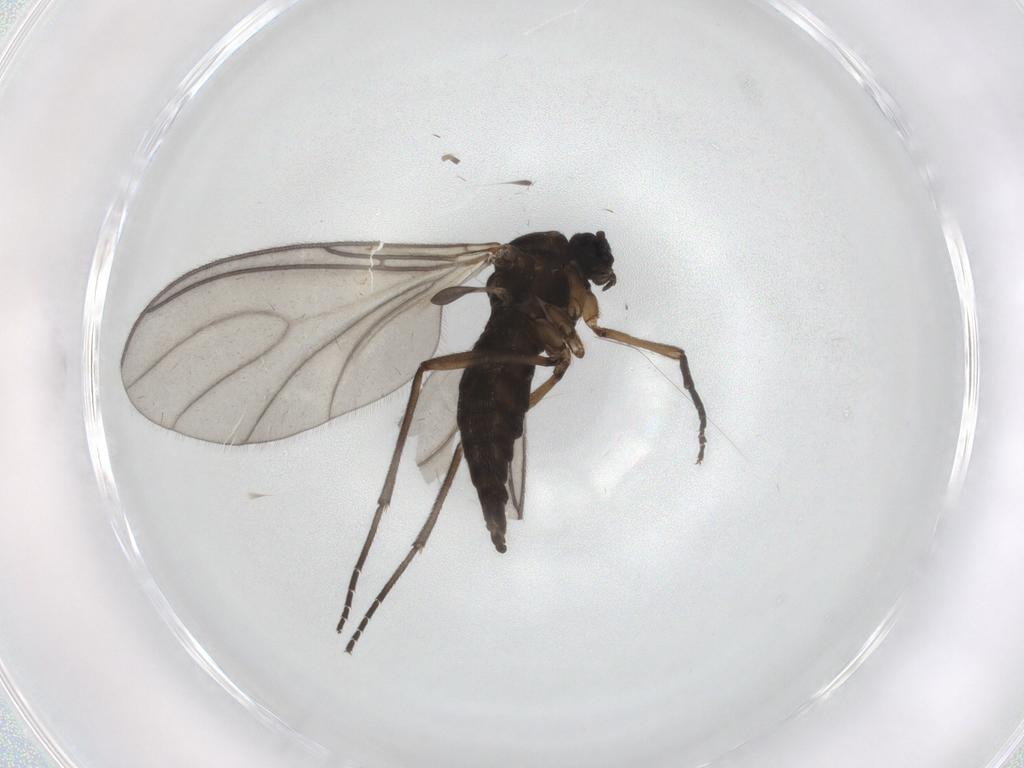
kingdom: Animalia
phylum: Arthropoda
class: Insecta
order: Diptera
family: Sciaridae
